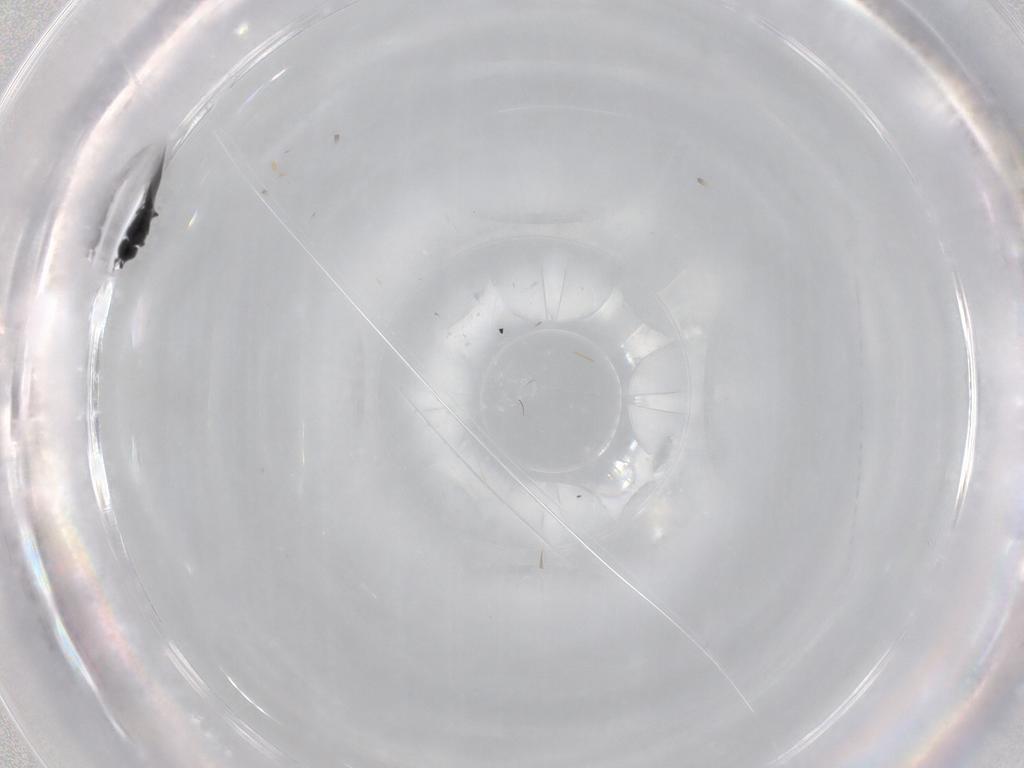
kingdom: Animalia
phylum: Arthropoda
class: Insecta
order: Hymenoptera
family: Scelionidae
